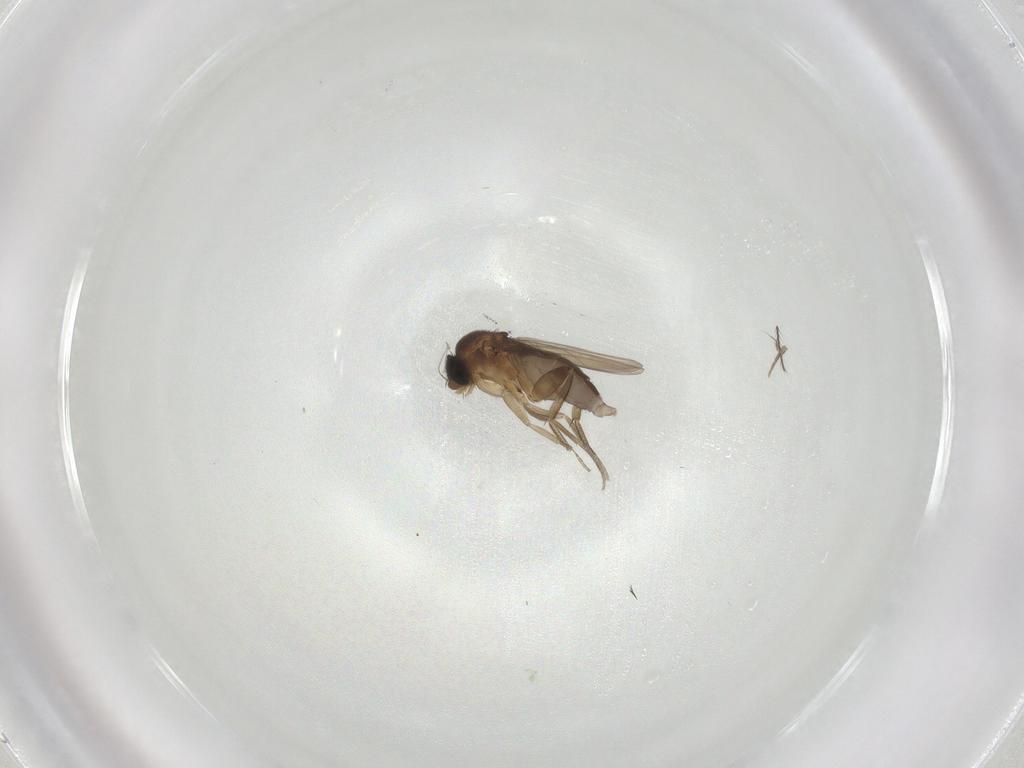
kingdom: Animalia
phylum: Arthropoda
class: Insecta
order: Diptera
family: Phoridae
